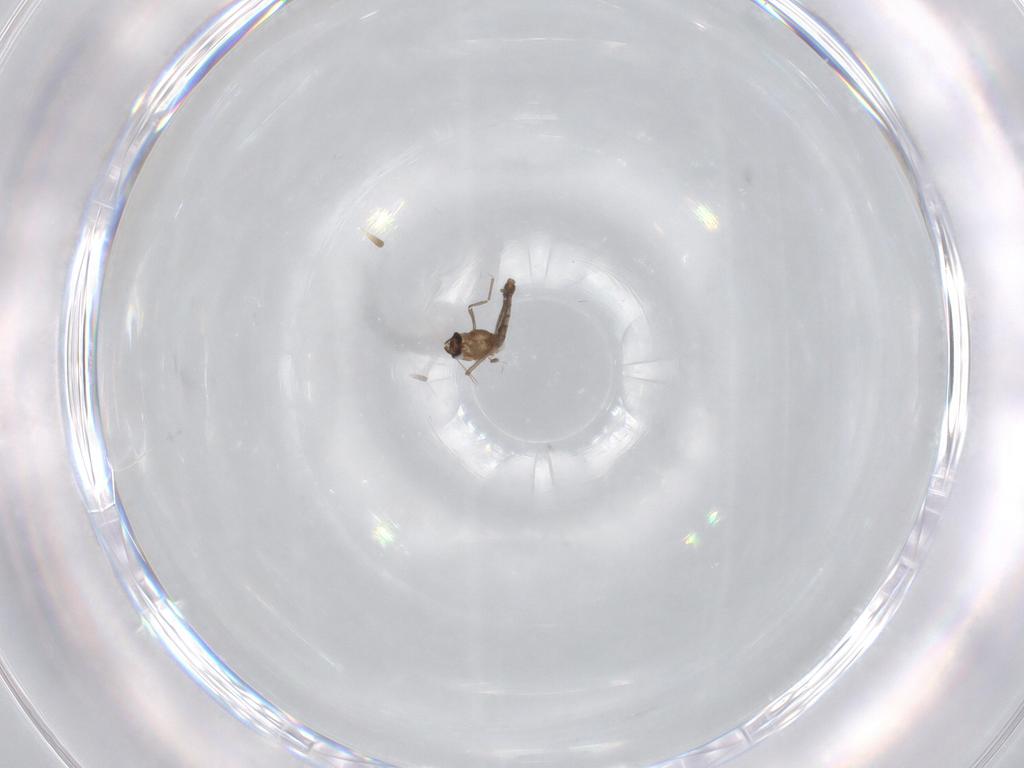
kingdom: Animalia
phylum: Arthropoda
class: Insecta
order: Diptera
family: Chironomidae
